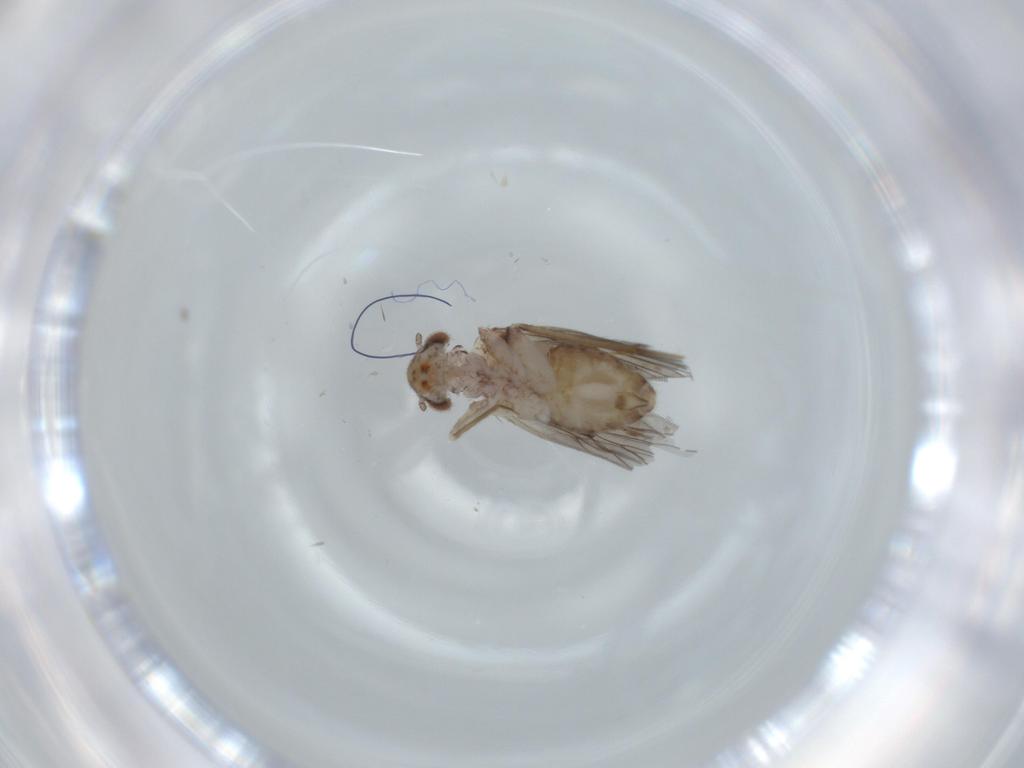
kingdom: Animalia
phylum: Arthropoda
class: Insecta
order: Psocodea
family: Lepidopsocidae
